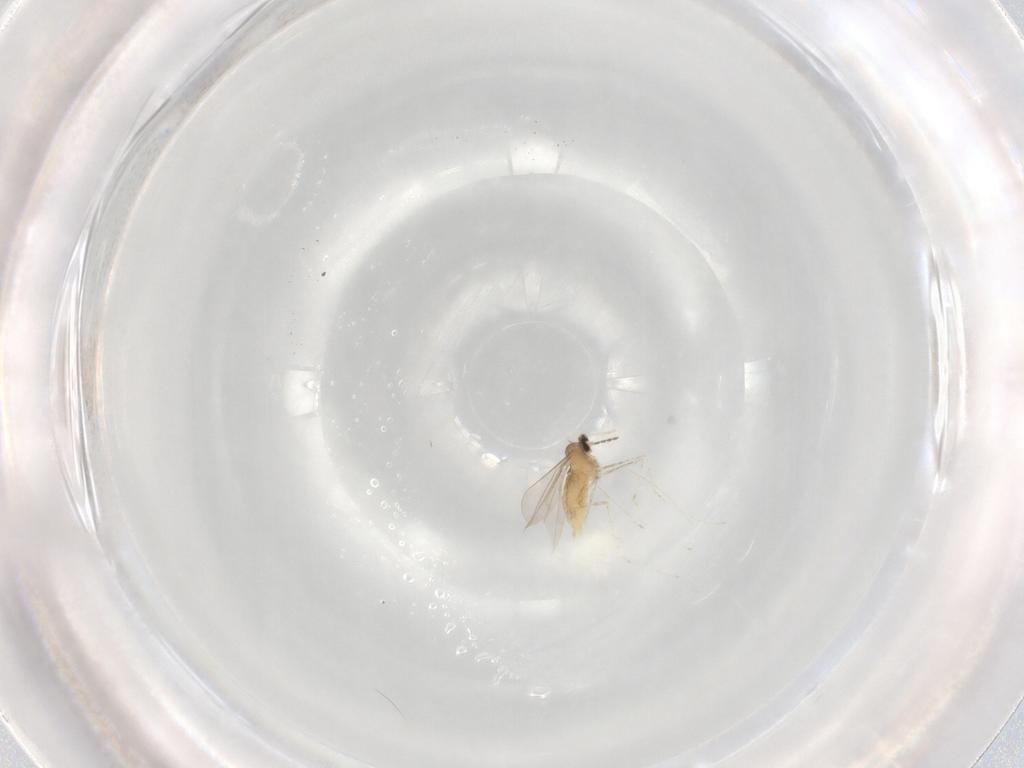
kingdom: Animalia
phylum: Arthropoda
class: Insecta
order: Diptera
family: Cecidomyiidae
